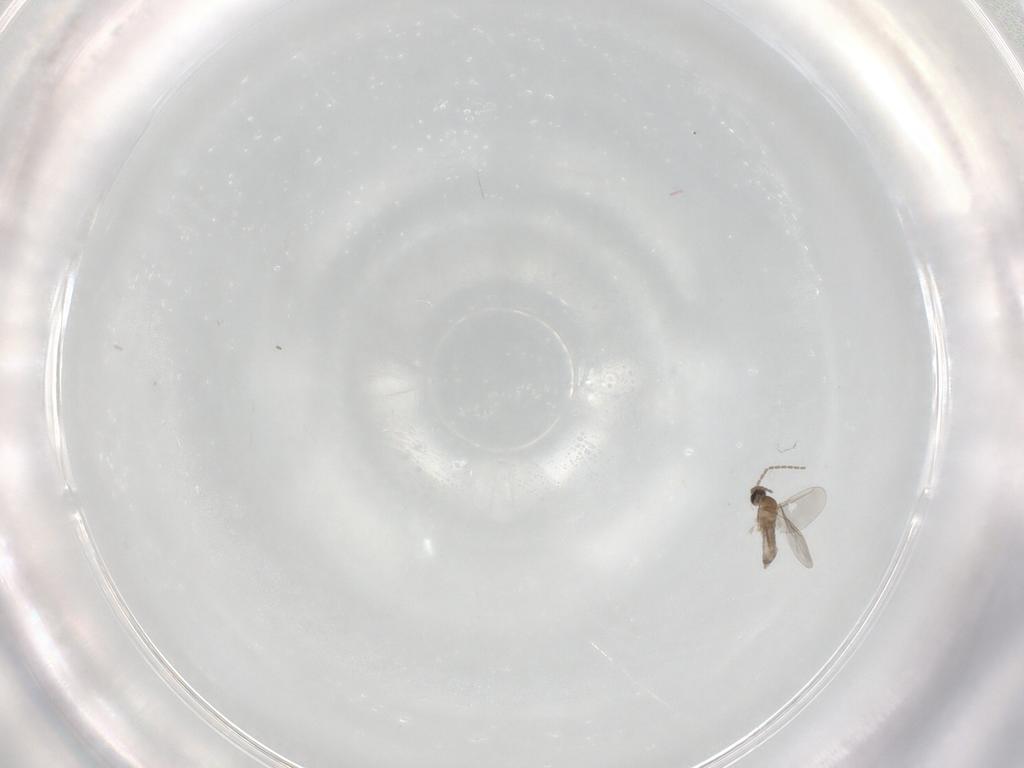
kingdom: Animalia
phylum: Arthropoda
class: Insecta
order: Diptera
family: Cecidomyiidae
